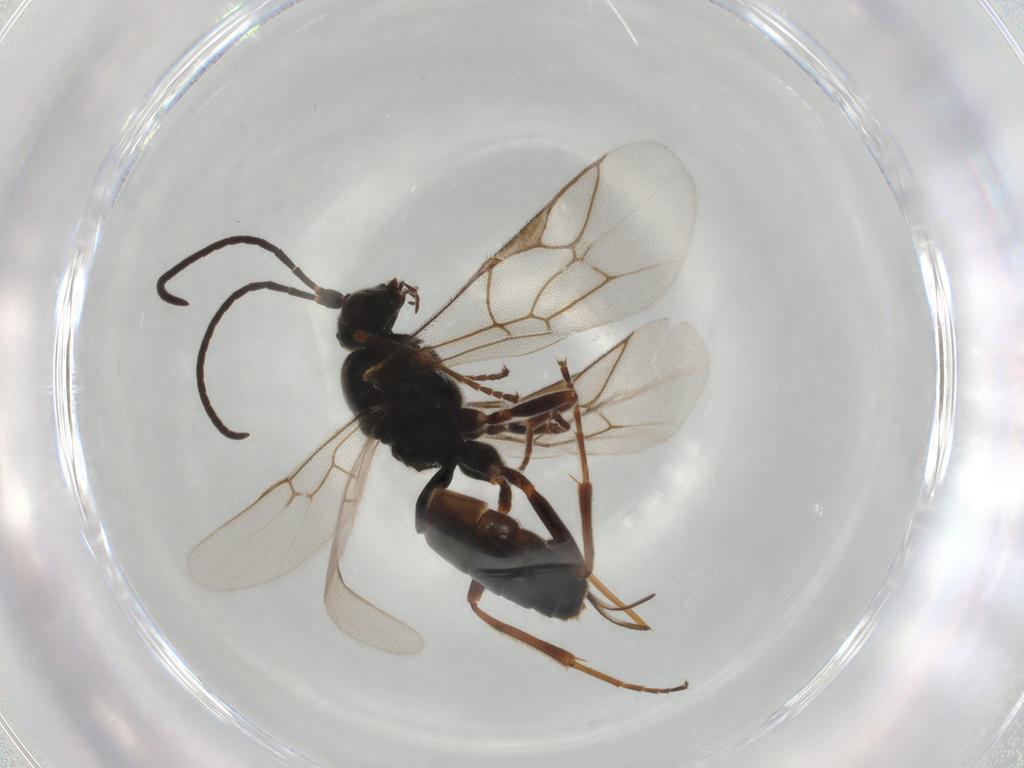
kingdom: Animalia
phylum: Arthropoda
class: Insecta
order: Hymenoptera
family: Ichneumonidae
